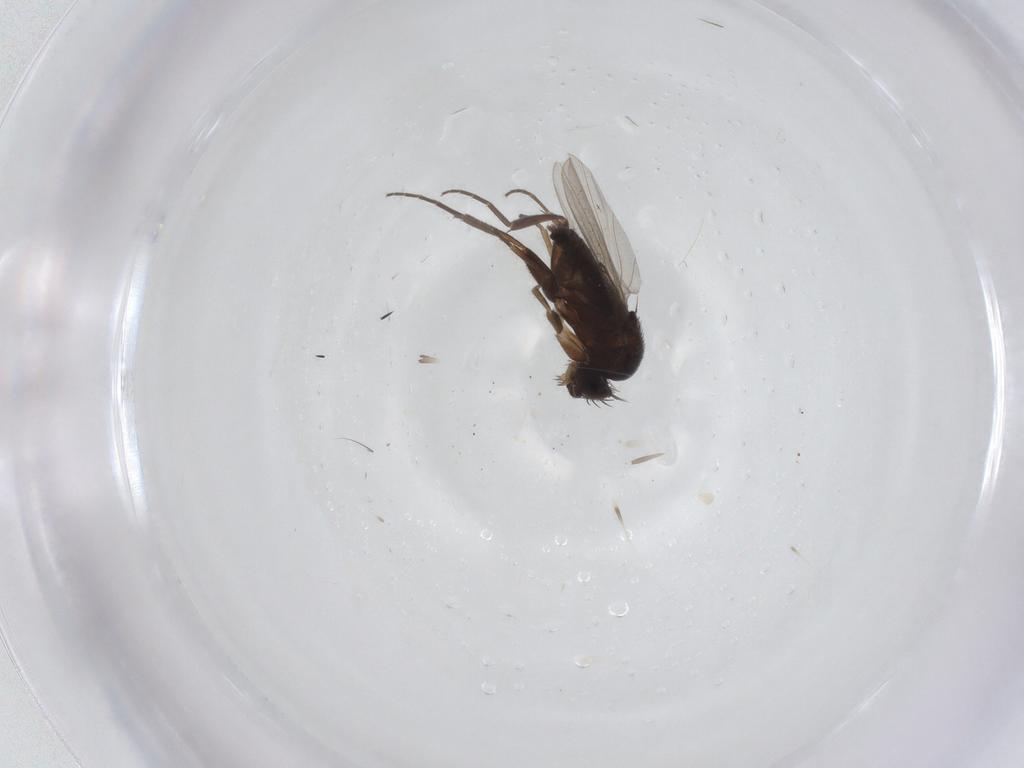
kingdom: Animalia
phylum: Arthropoda
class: Insecta
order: Diptera
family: Phoridae
